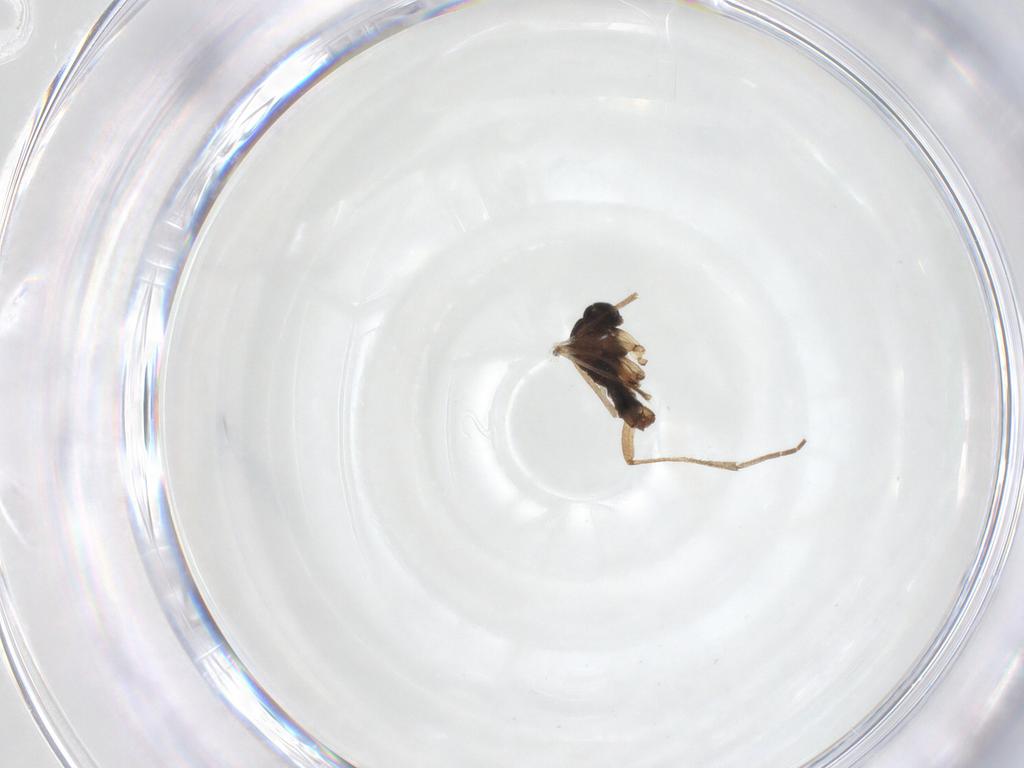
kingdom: Animalia
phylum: Arthropoda
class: Insecta
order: Diptera
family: Sciaridae
